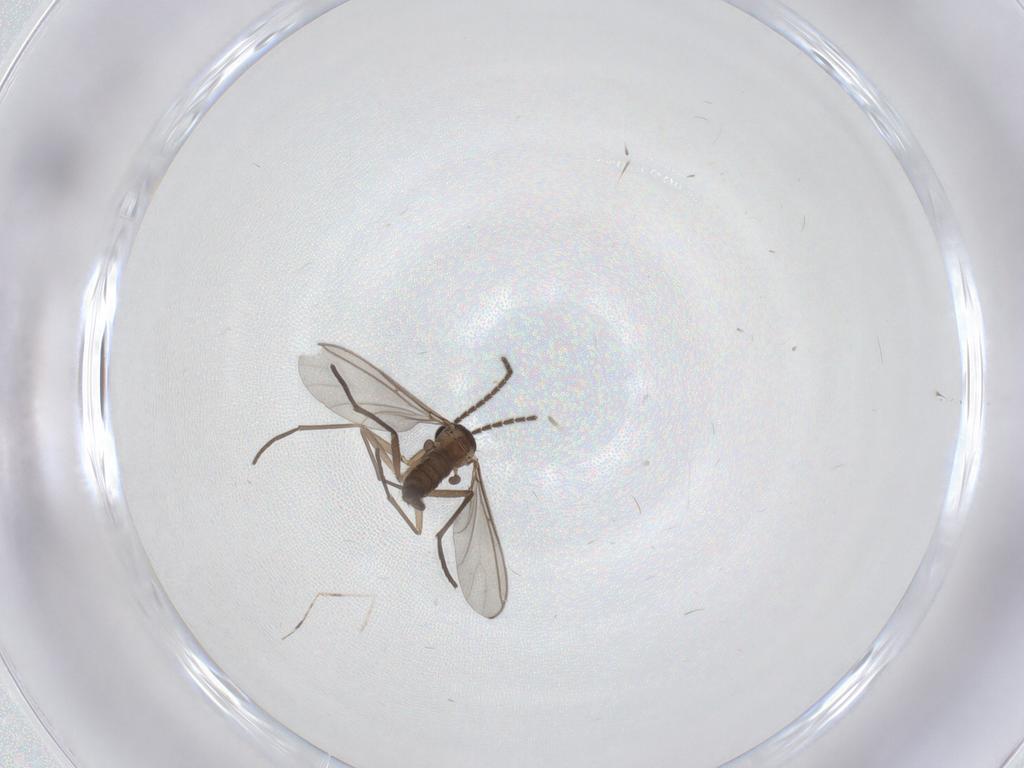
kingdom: Animalia
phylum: Arthropoda
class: Insecta
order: Diptera
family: Sciaridae
